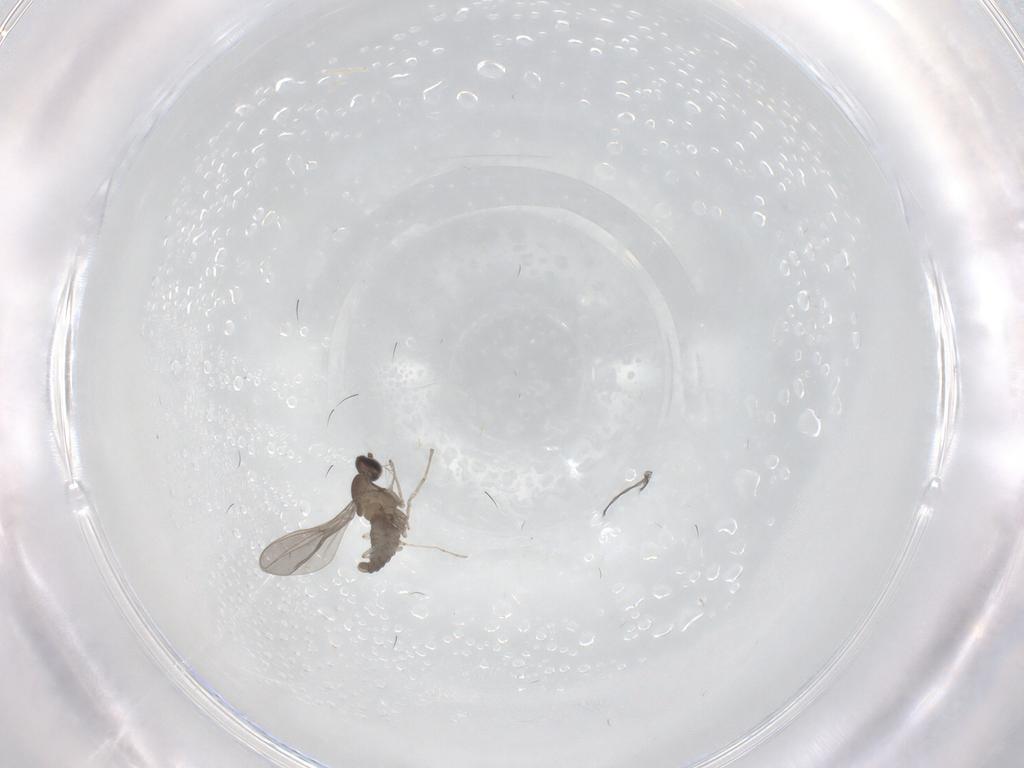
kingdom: Animalia
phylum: Arthropoda
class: Insecta
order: Diptera
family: Cecidomyiidae
